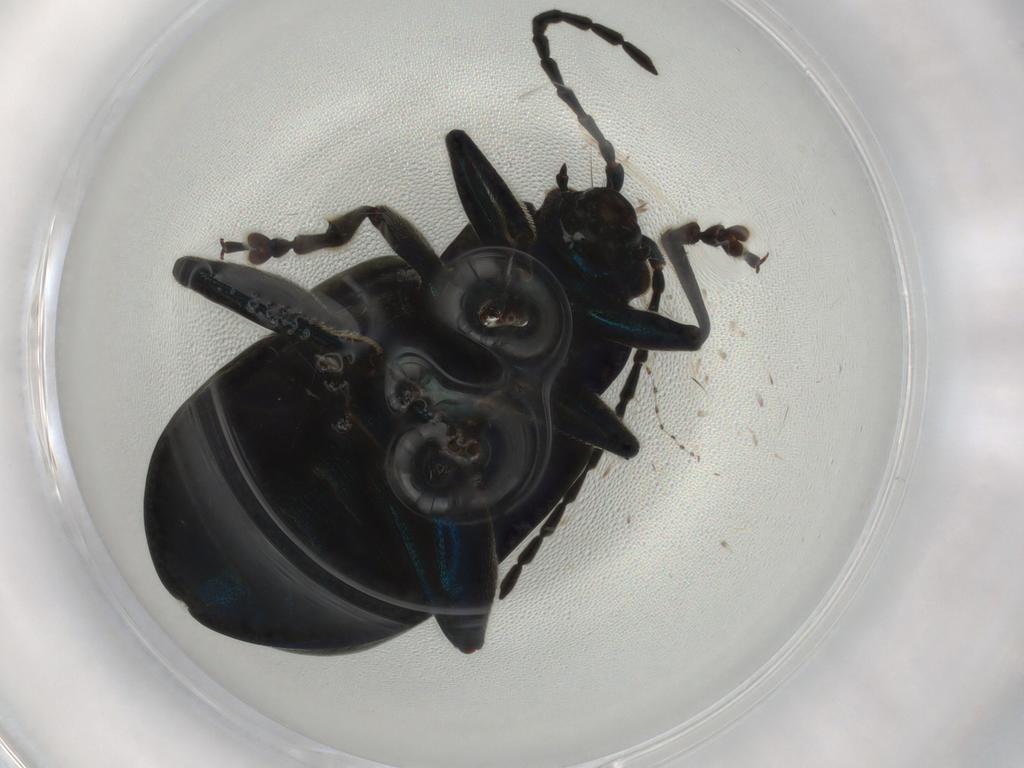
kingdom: Animalia
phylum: Arthropoda
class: Insecta
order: Coleoptera
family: Chrysomelidae
